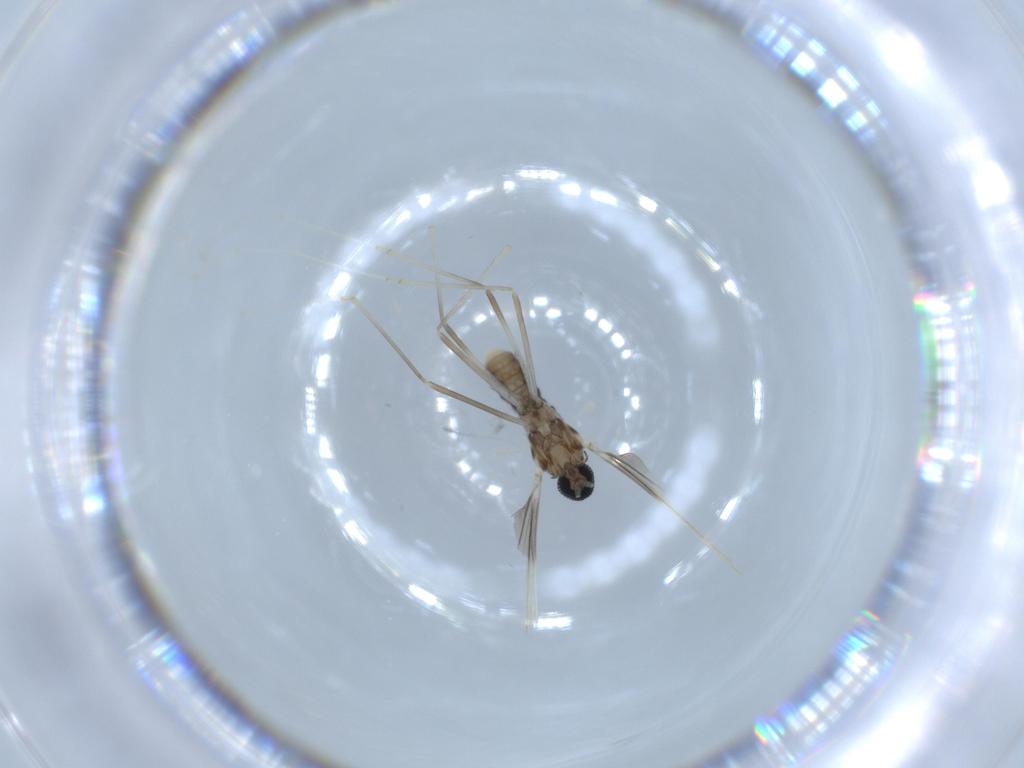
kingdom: Animalia
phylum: Arthropoda
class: Insecta
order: Diptera
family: Cecidomyiidae
